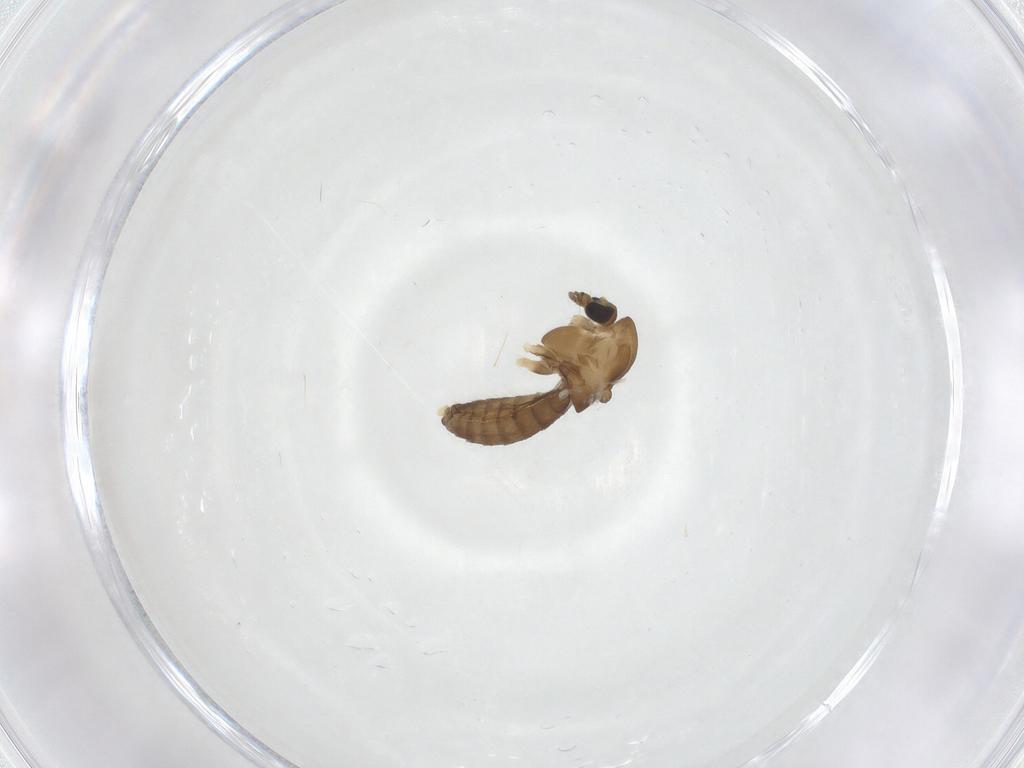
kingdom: Animalia
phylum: Arthropoda
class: Insecta
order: Diptera
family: Chironomidae
